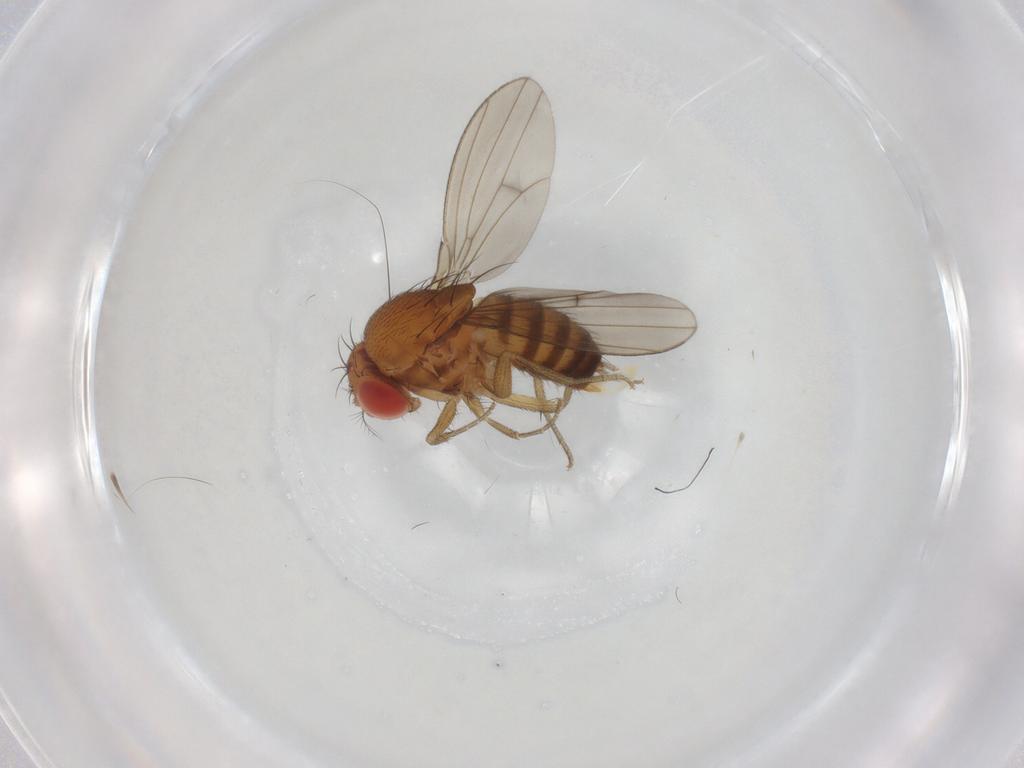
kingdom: Animalia
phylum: Arthropoda
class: Insecta
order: Diptera
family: Drosophilidae
